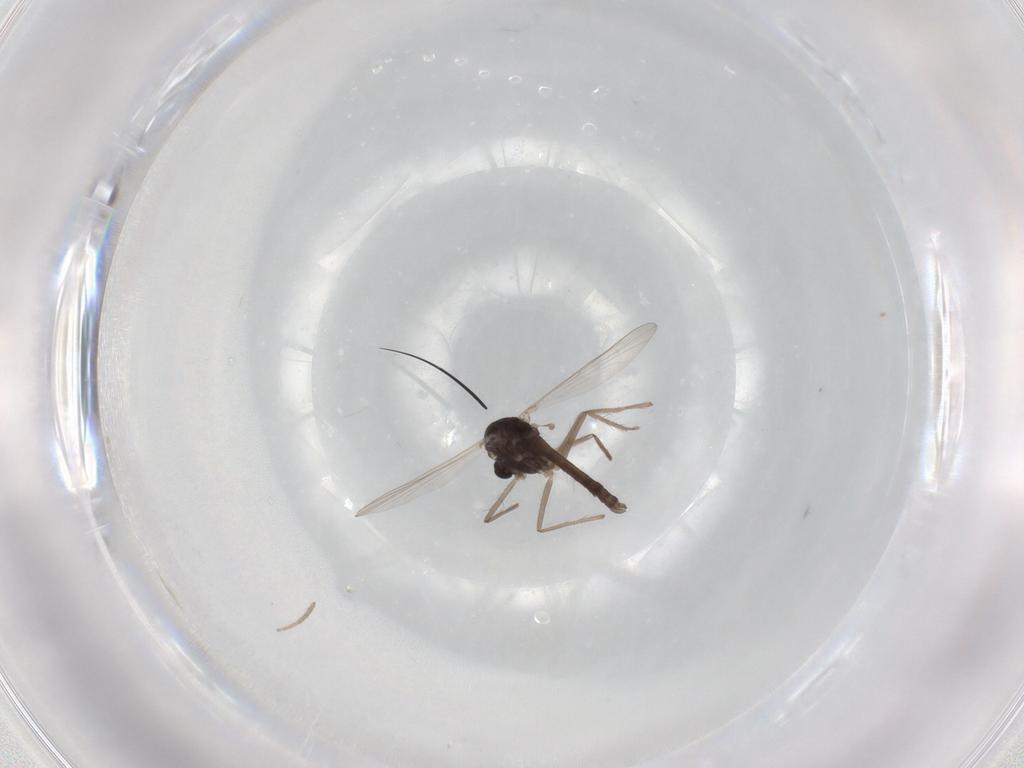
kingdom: Animalia
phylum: Arthropoda
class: Insecta
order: Diptera
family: Chironomidae
